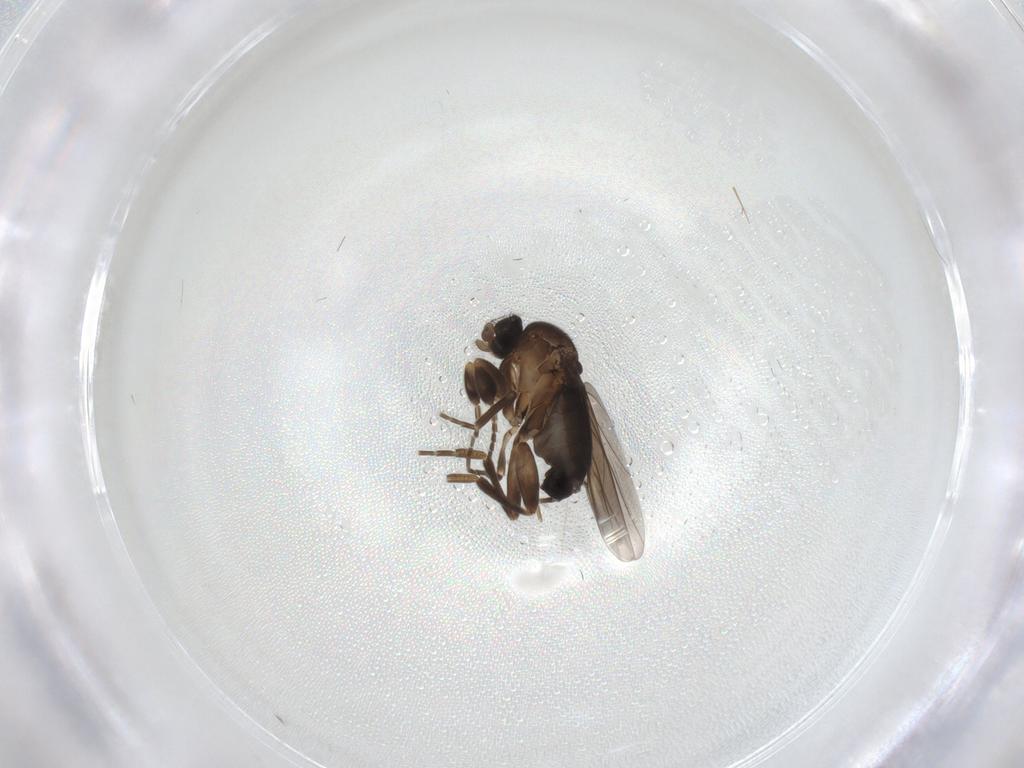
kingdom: Animalia
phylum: Arthropoda
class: Insecta
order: Diptera
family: Cecidomyiidae
